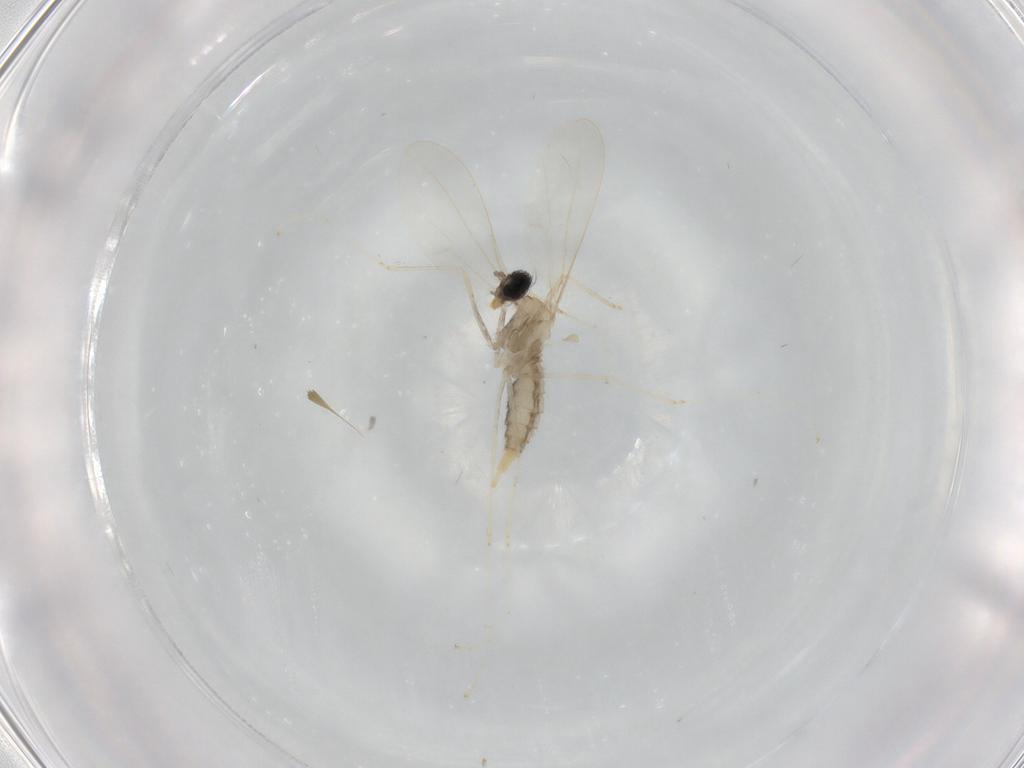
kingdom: Animalia
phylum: Arthropoda
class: Insecta
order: Diptera
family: Cecidomyiidae
